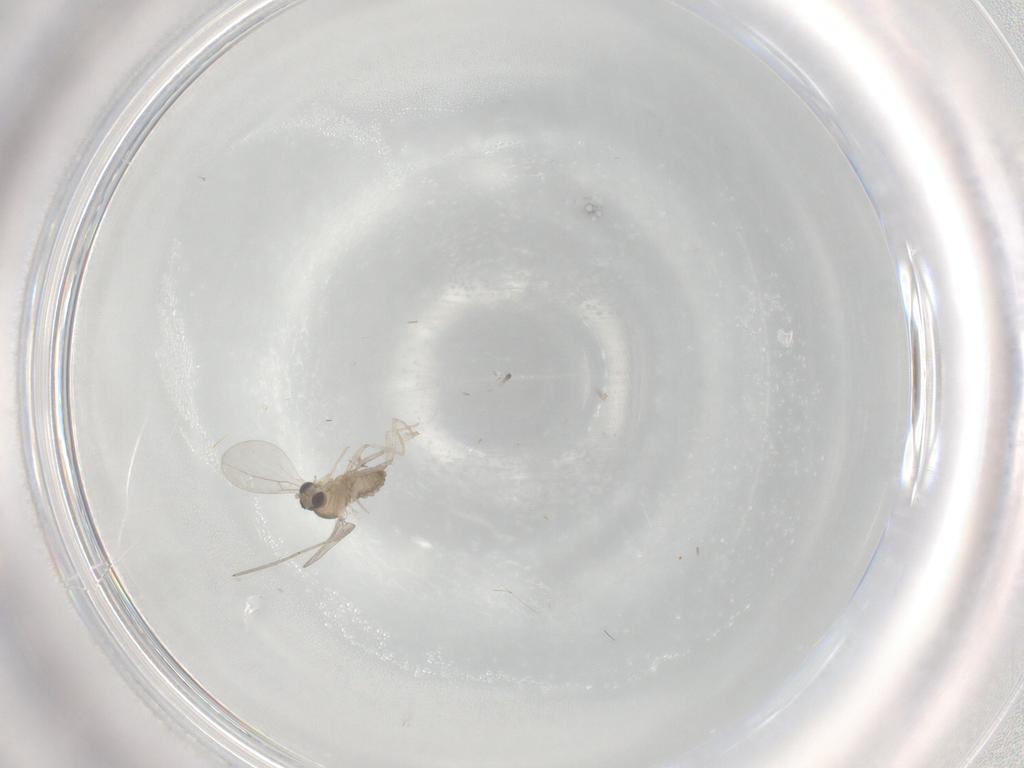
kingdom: Animalia
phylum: Arthropoda
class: Insecta
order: Diptera
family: Cecidomyiidae
